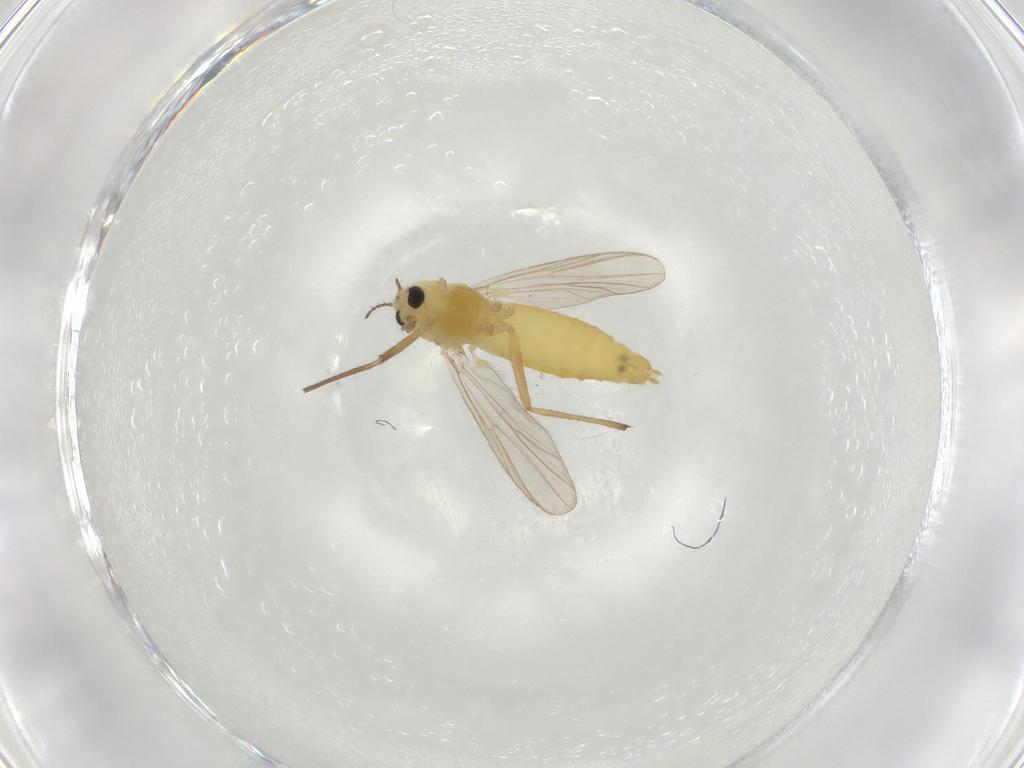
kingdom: Animalia
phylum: Arthropoda
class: Insecta
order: Diptera
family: Chironomidae
